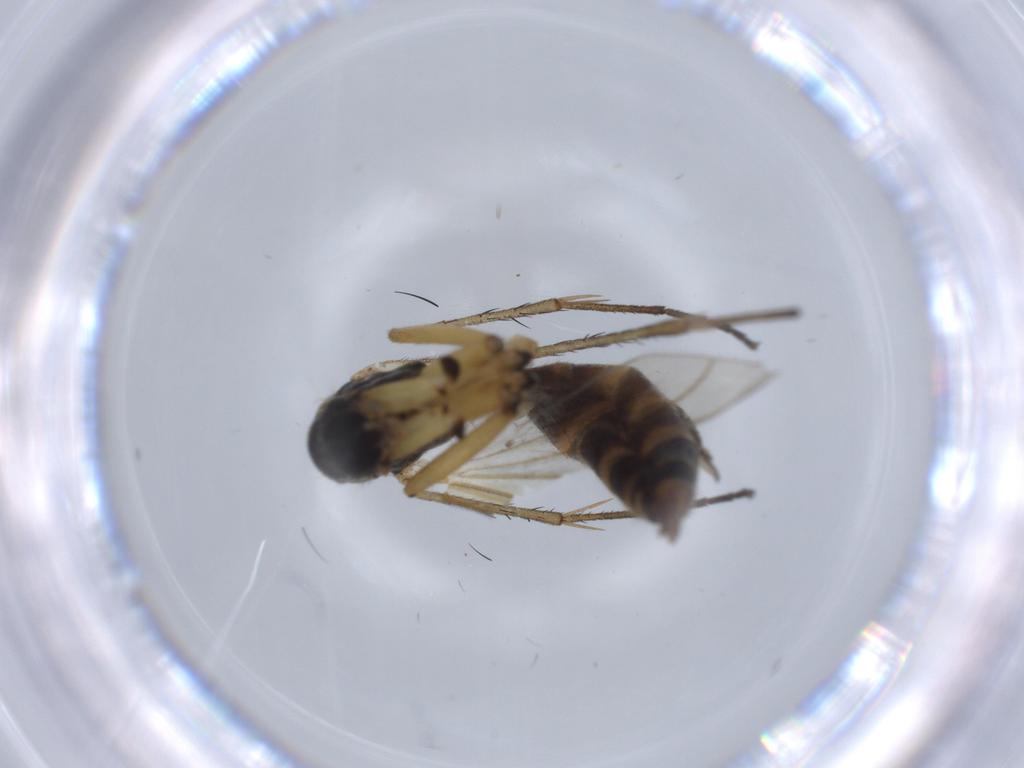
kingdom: Animalia
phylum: Arthropoda
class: Insecta
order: Diptera
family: Mycetophilidae
